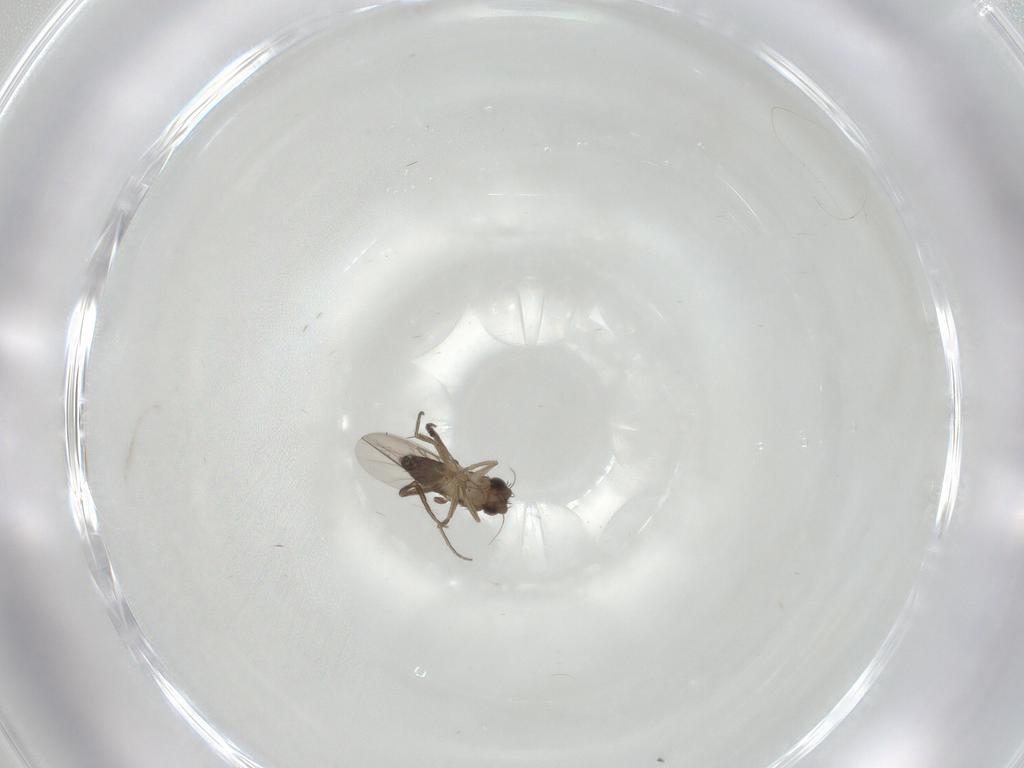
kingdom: Animalia
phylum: Arthropoda
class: Insecta
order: Diptera
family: Phoridae
